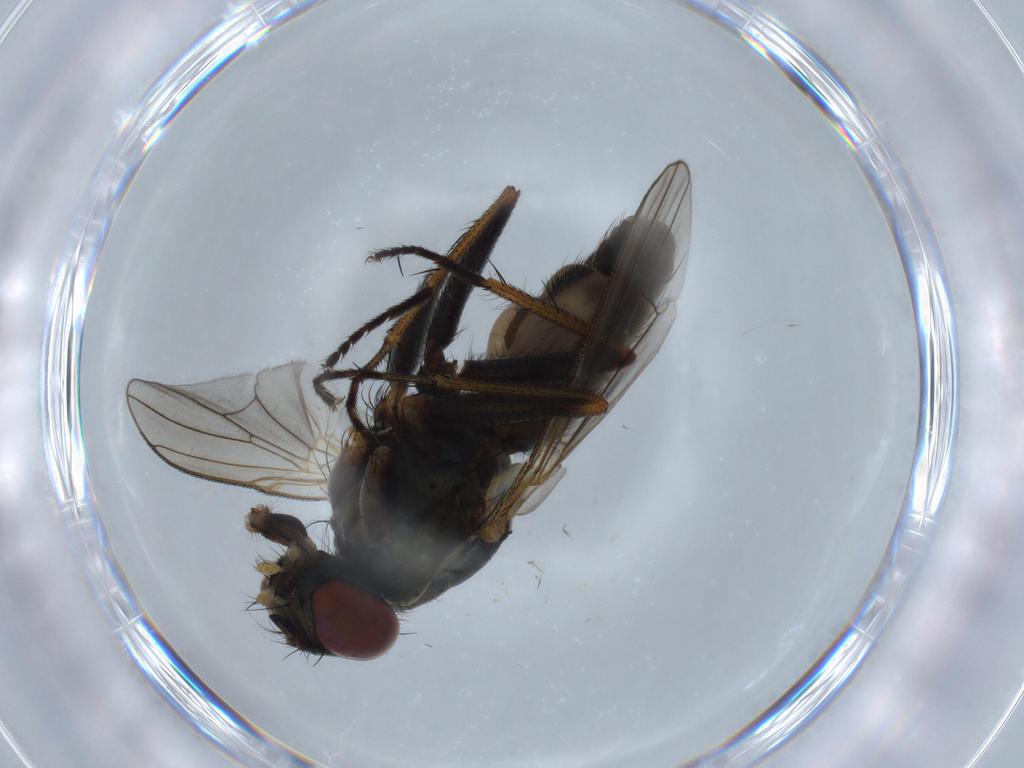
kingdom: Animalia
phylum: Arthropoda
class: Insecta
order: Diptera
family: Muscidae
